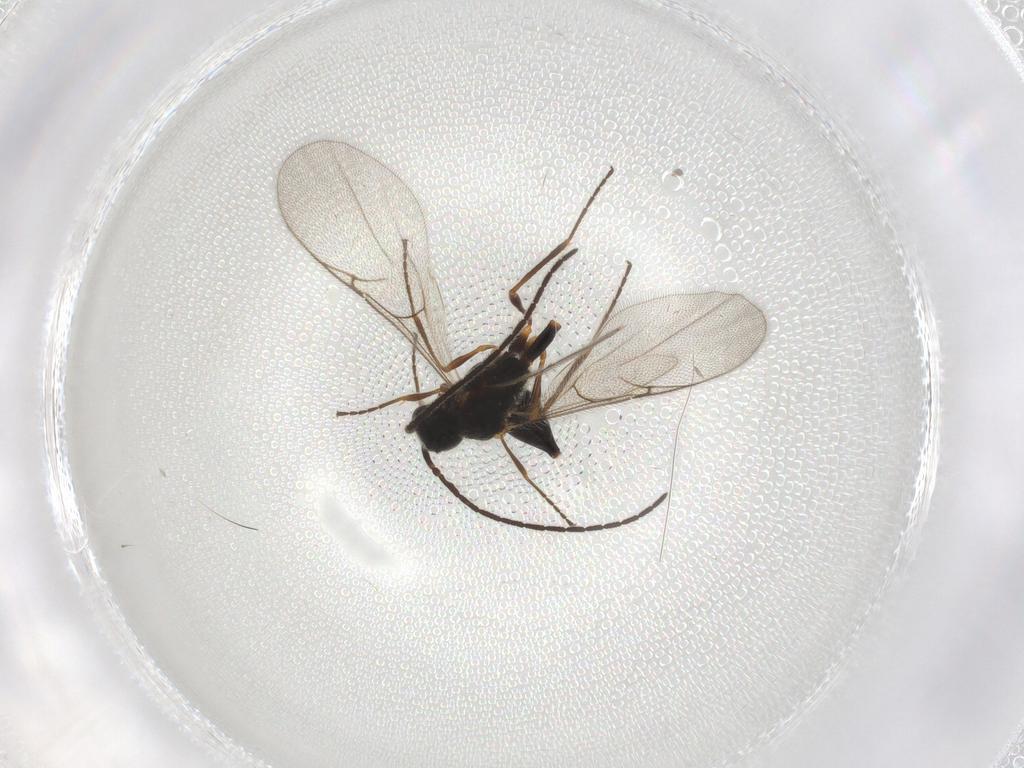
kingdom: Animalia
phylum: Arthropoda
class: Insecta
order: Hymenoptera
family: Diapriidae
